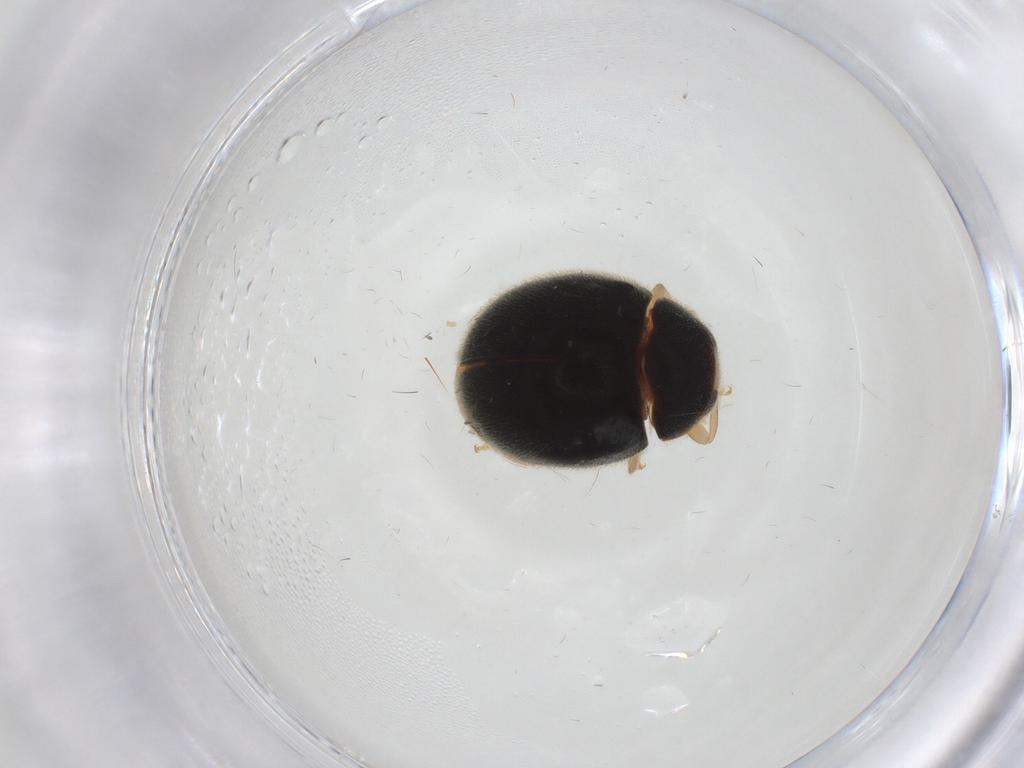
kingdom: Animalia
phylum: Arthropoda
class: Insecta
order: Coleoptera
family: Coccinellidae
